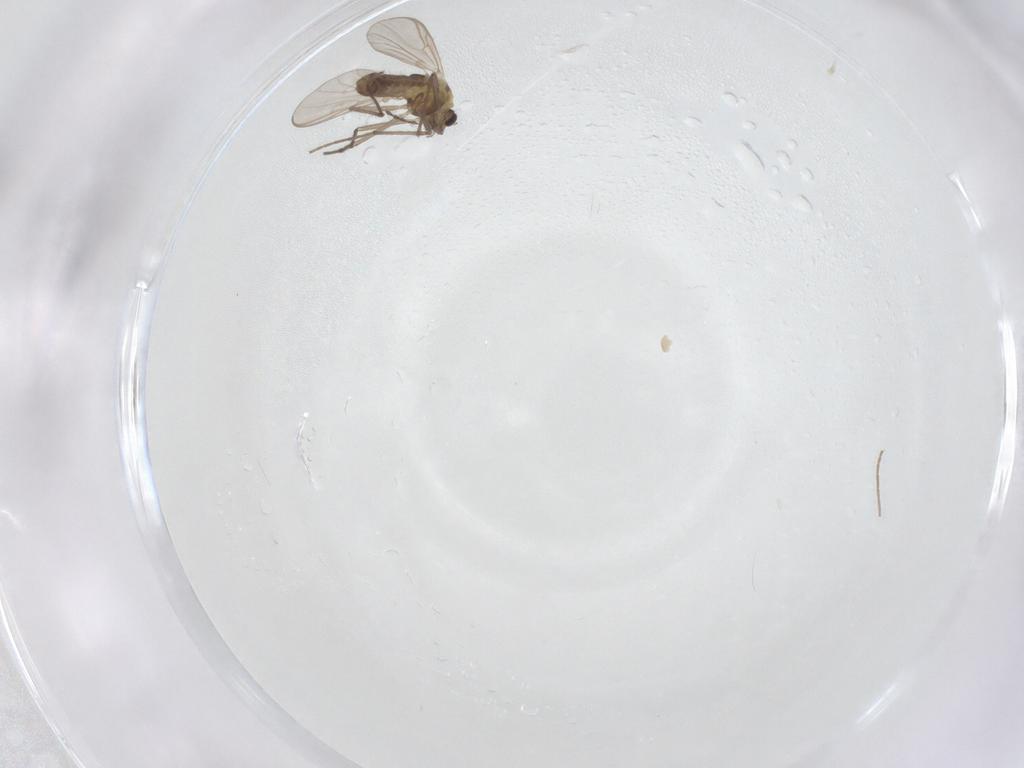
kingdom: Animalia
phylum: Arthropoda
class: Insecta
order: Diptera
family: Chironomidae
